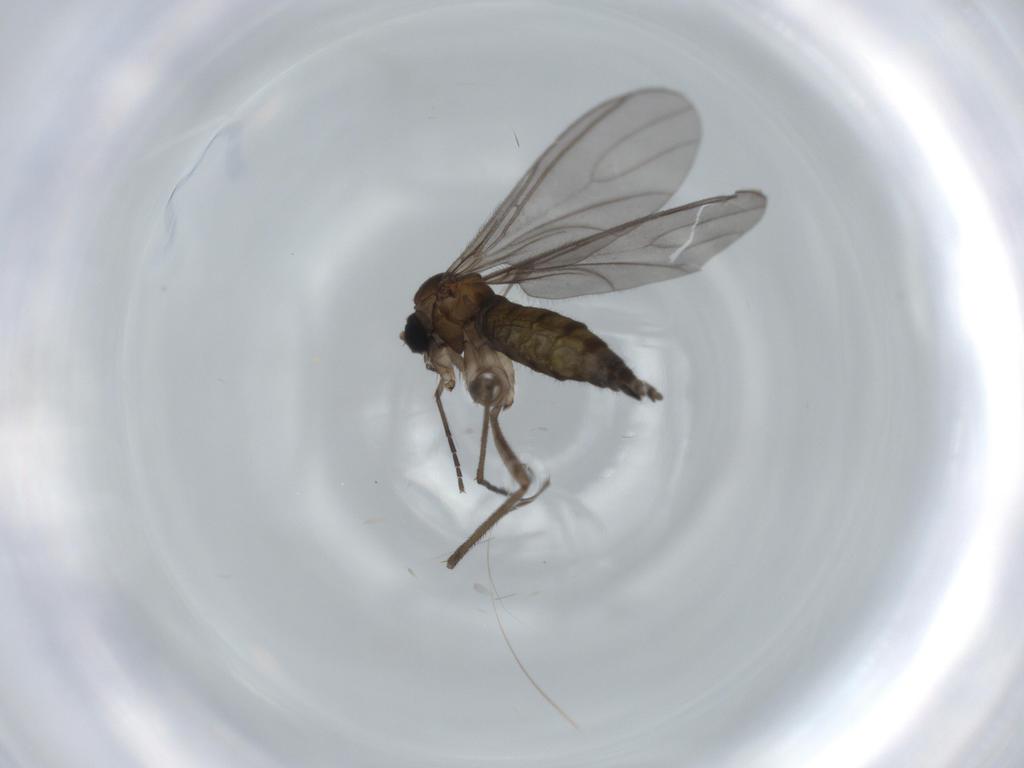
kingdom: Animalia
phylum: Arthropoda
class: Insecta
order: Diptera
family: Sciaridae
